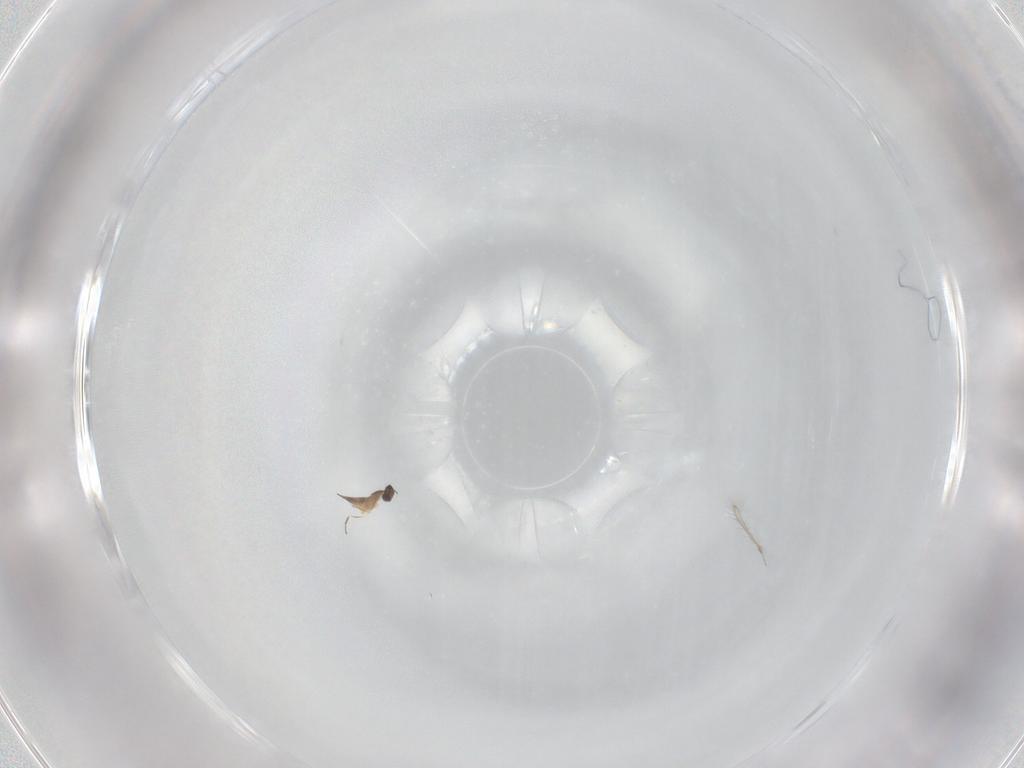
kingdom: Animalia
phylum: Arthropoda
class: Insecta
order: Hymenoptera
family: Mymaridae
